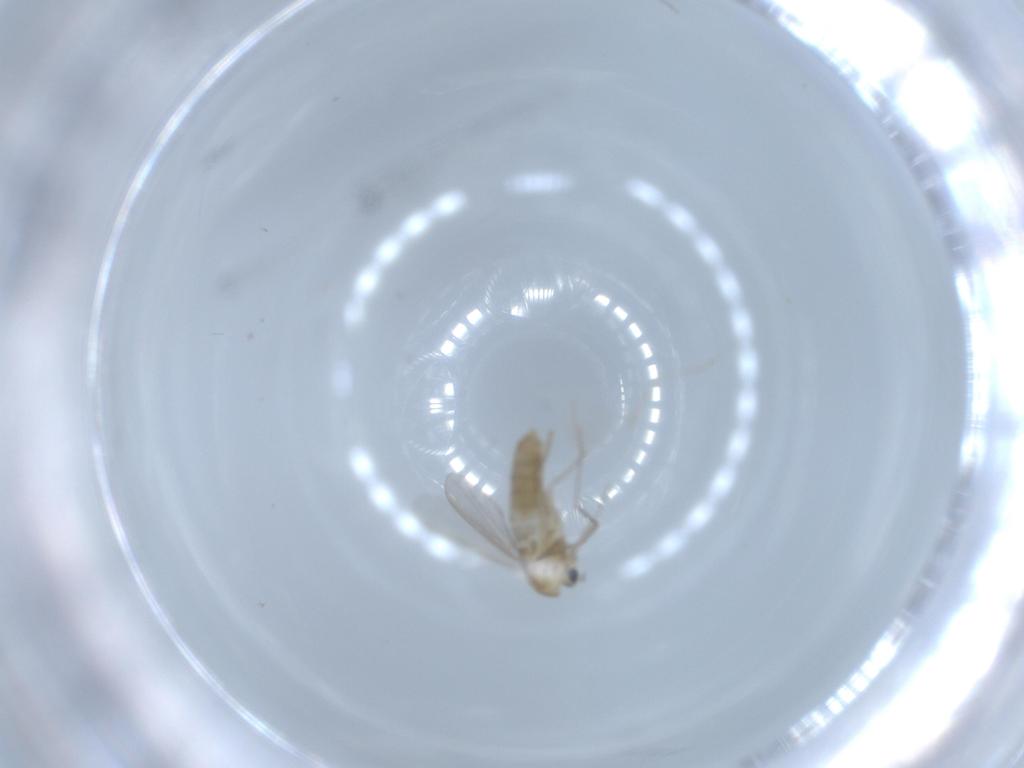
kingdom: Animalia
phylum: Arthropoda
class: Insecta
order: Diptera
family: Chironomidae
